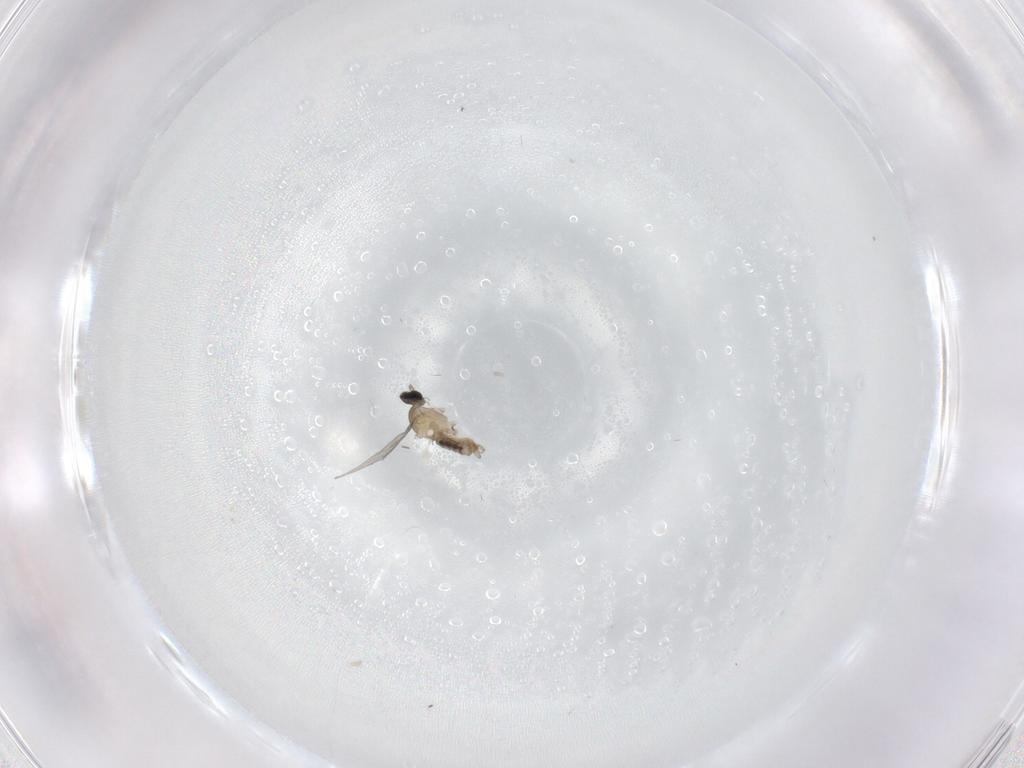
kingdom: Animalia
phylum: Arthropoda
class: Insecta
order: Diptera
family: Cecidomyiidae
